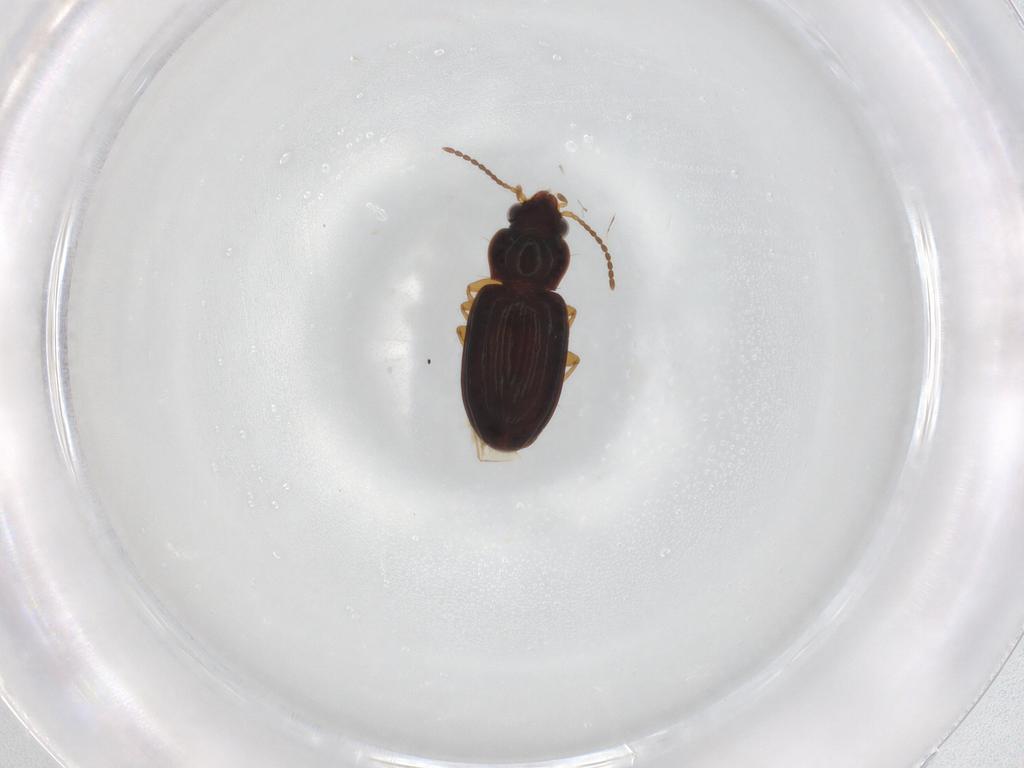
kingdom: Animalia
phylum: Arthropoda
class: Insecta
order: Coleoptera
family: Carabidae
